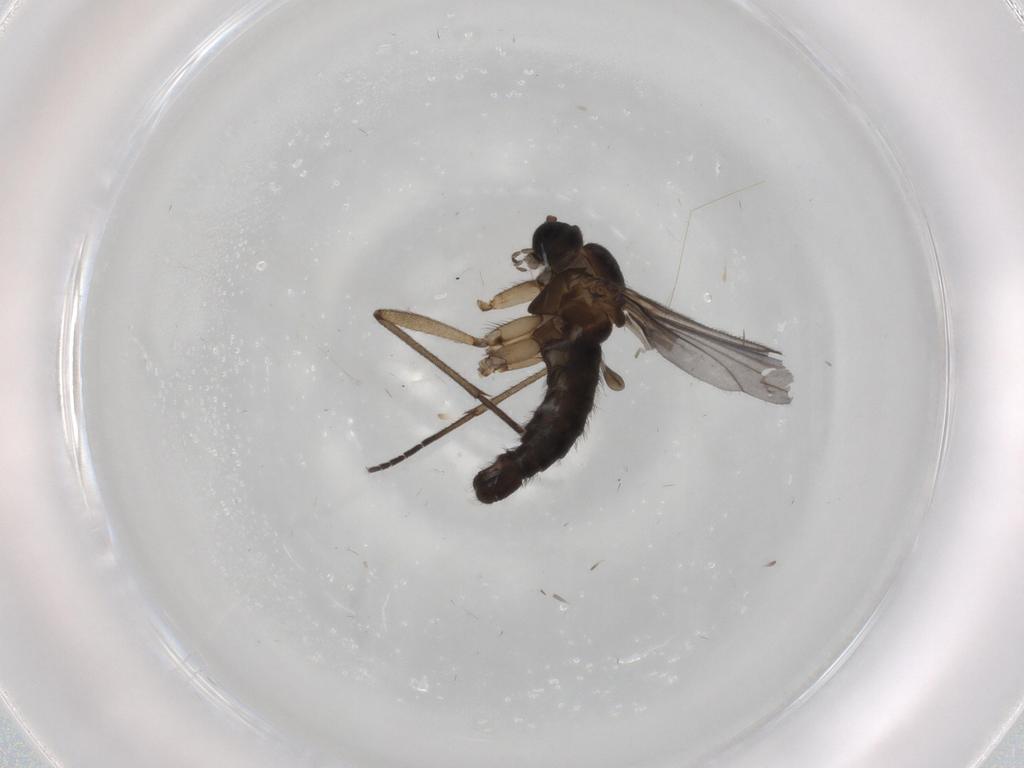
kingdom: Animalia
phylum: Arthropoda
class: Insecta
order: Diptera
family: Sciaridae
